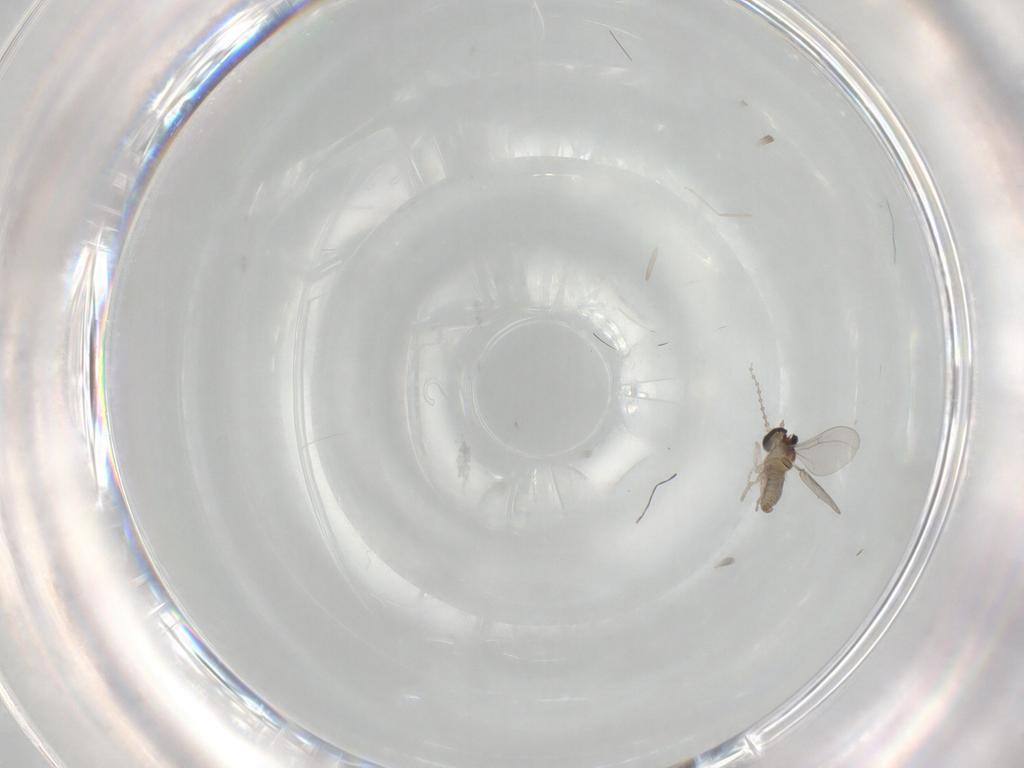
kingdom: Animalia
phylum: Arthropoda
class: Insecta
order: Diptera
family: Cecidomyiidae
